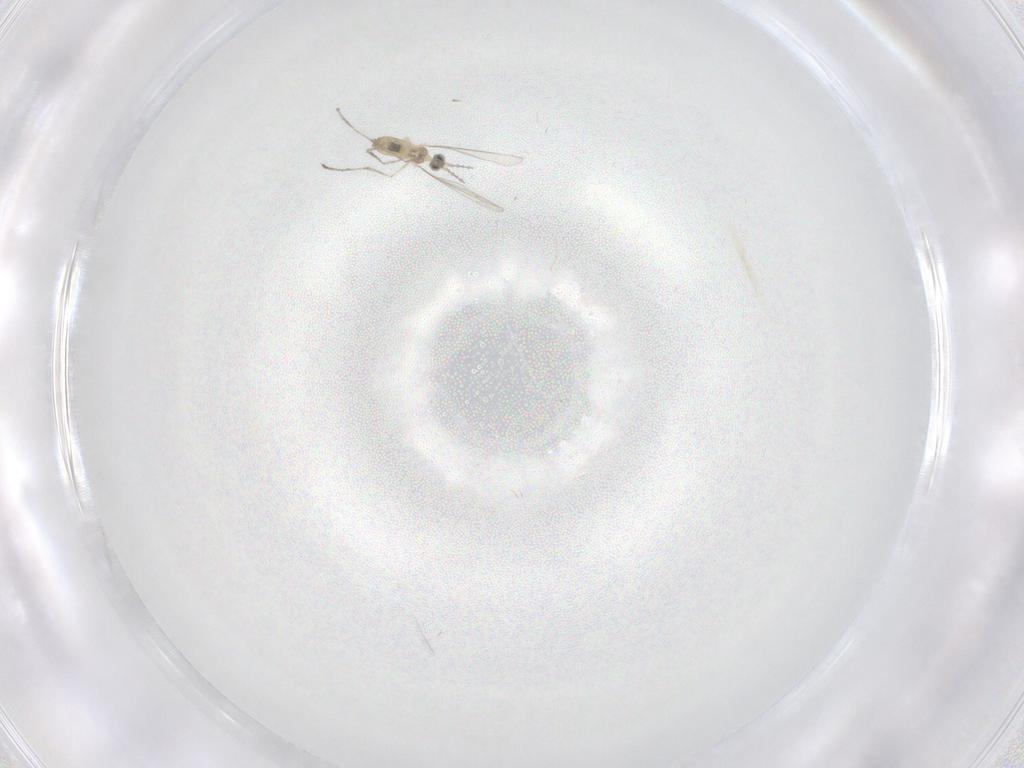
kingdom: Animalia
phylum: Arthropoda
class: Insecta
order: Diptera
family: Cecidomyiidae
